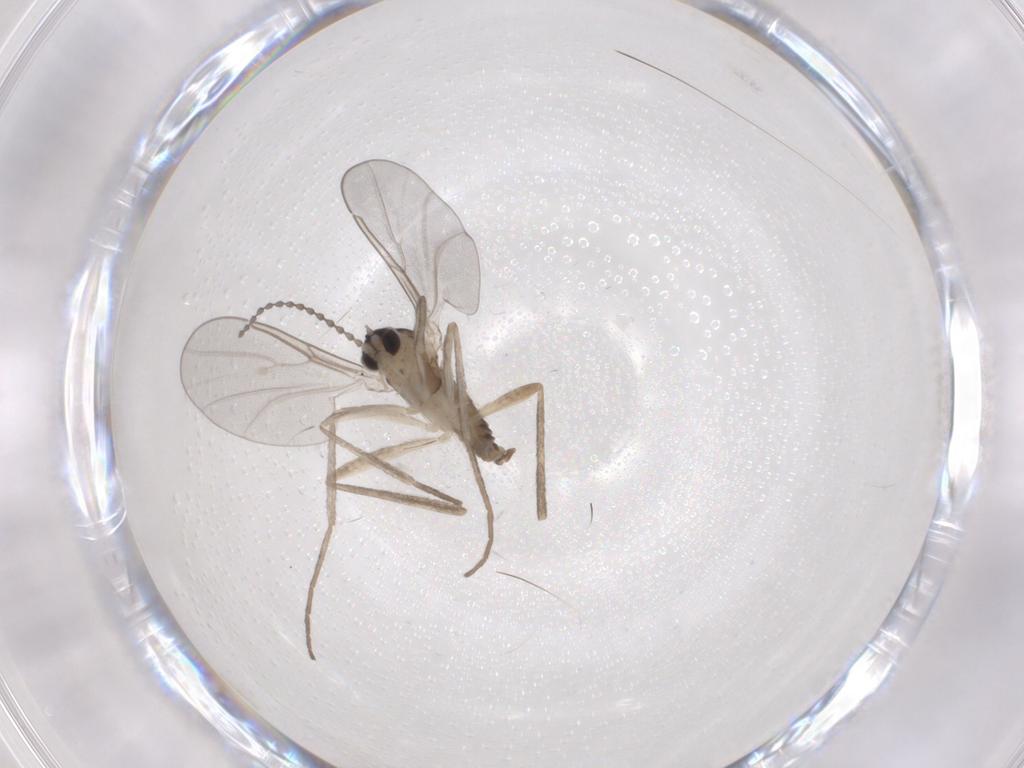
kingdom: Animalia
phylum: Arthropoda
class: Insecta
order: Diptera
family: Cecidomyiidae
